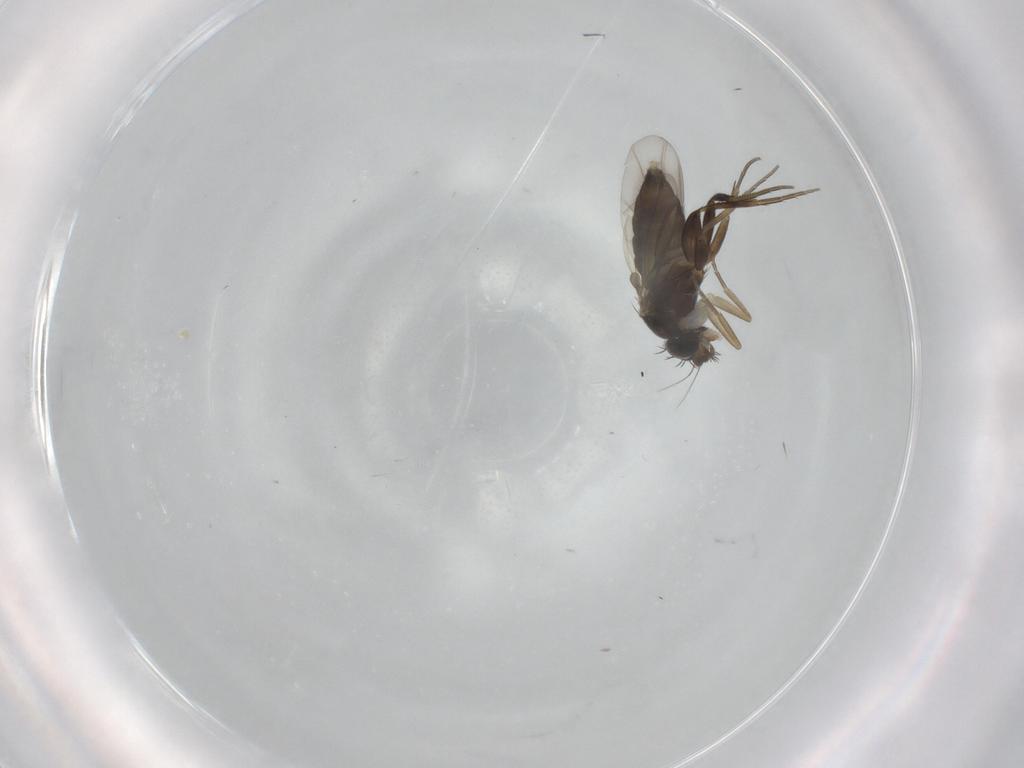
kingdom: Animalia
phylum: Arthropoda
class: Insecta
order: Diptera
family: Phoridae
